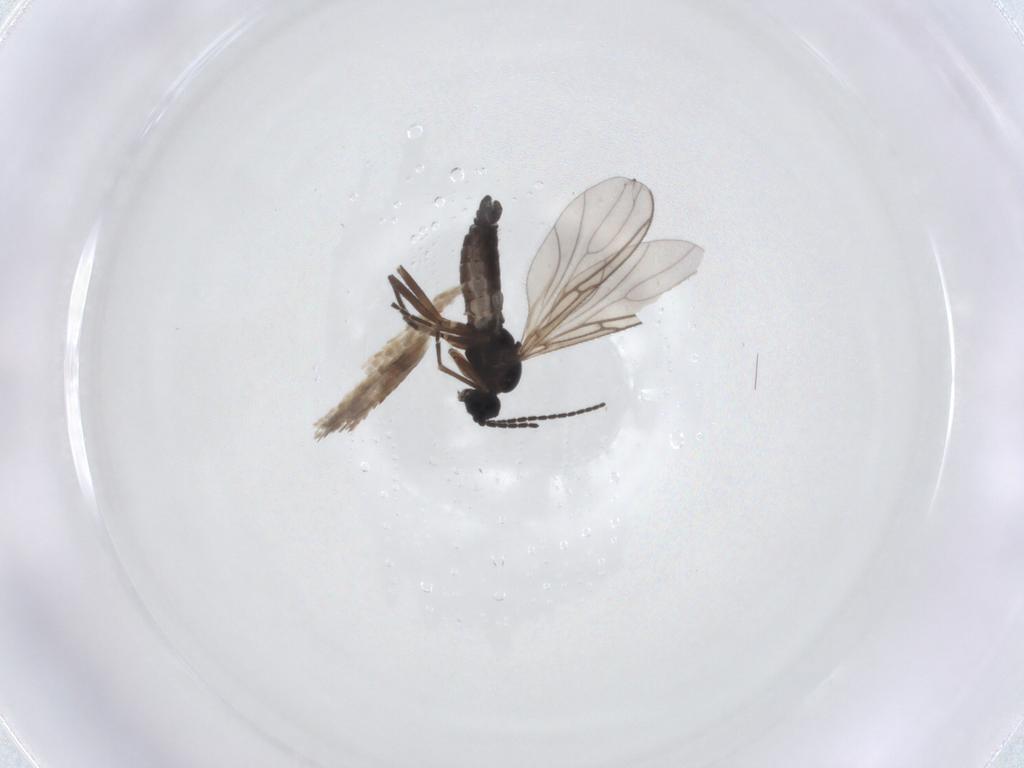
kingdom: Animalia
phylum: Arthropoda
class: Insecta
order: Diptera
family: Sciaridae
